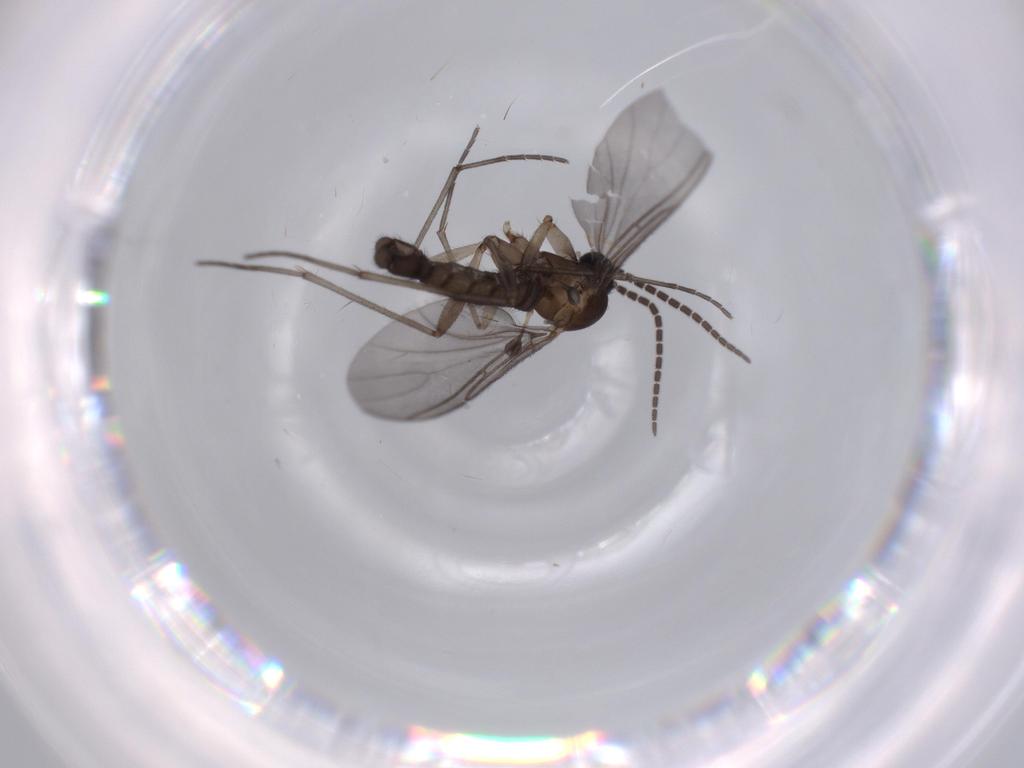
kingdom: Animalia
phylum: Arthropoda
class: Insecta
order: Diptera
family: Sciaridae
